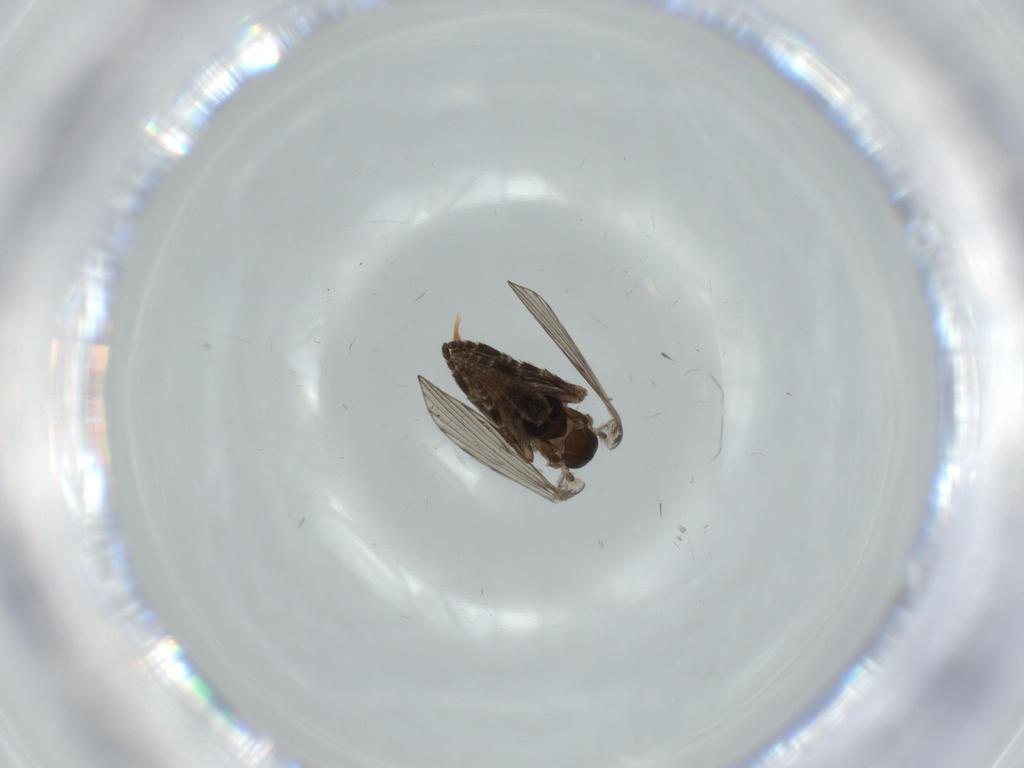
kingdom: Animalia
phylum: Arthropoda
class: Insecta
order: Diptera
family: Psychodidae
